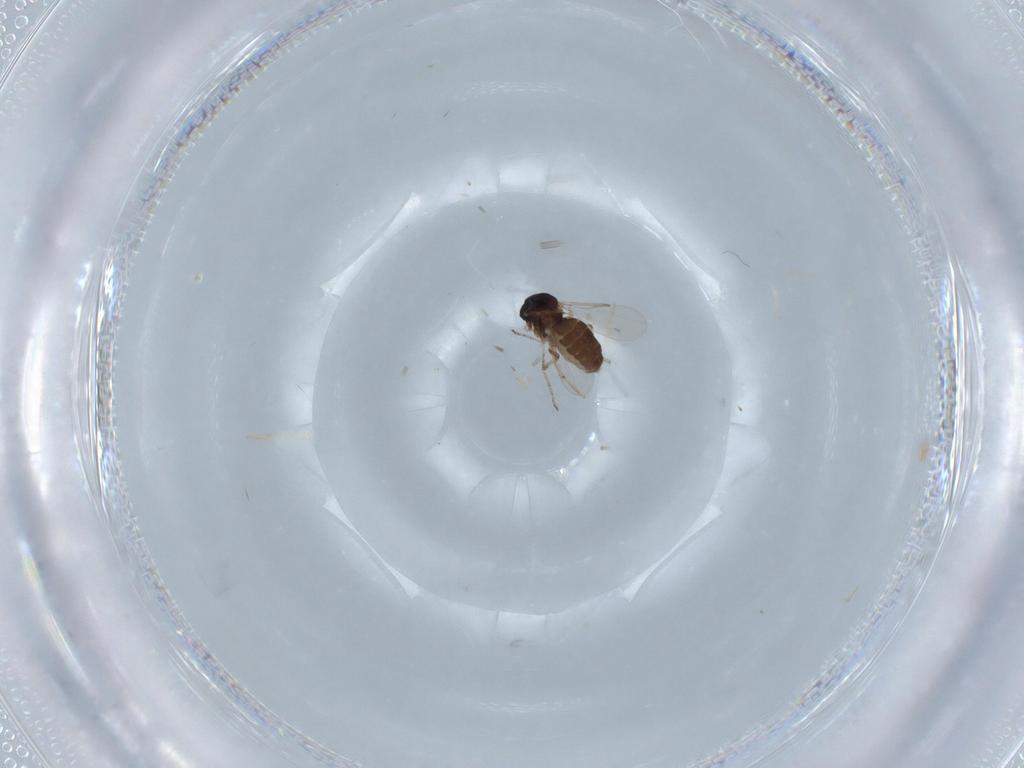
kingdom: Animalia
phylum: Arthropoda
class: Insecta
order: Diptera
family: Ceratopogonidae
